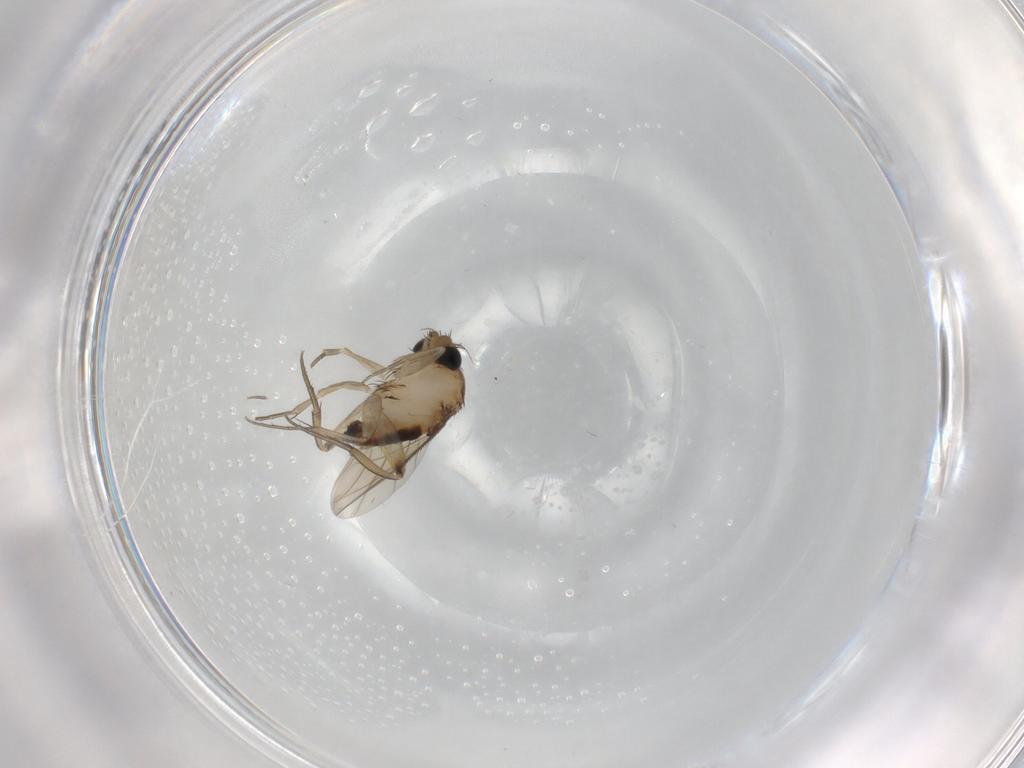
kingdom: Animalia
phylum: Arthropoda
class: Insecta
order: Diptera
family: Phoridae
